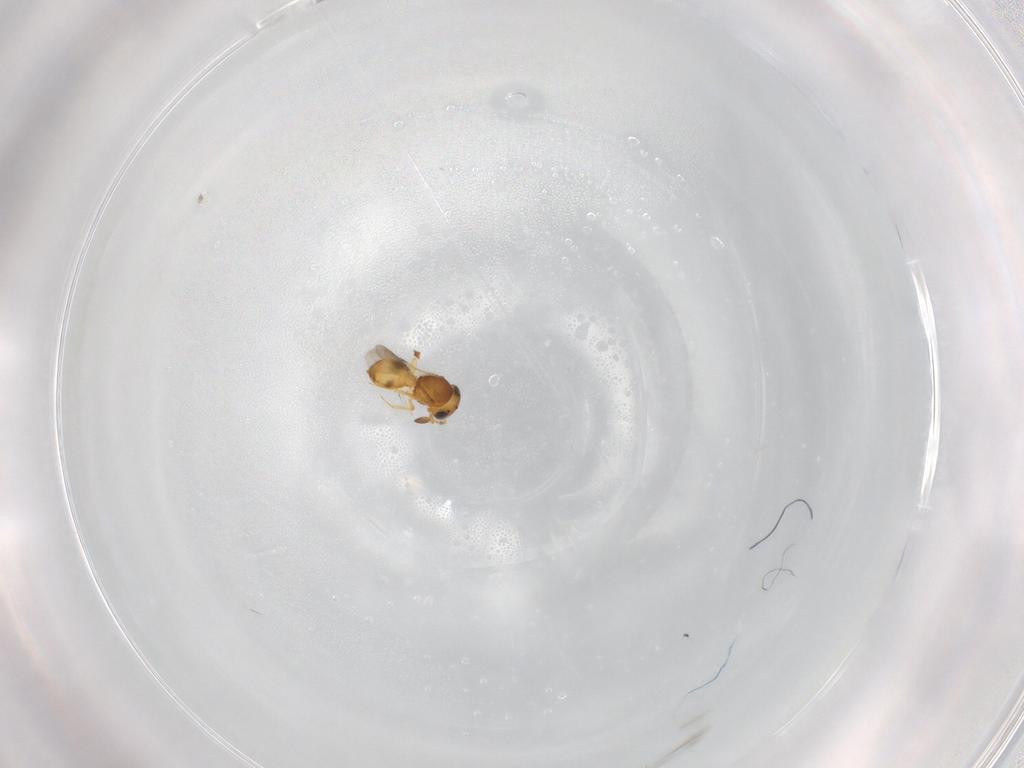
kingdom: Animalia
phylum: Arthropoda
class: Insecta
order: Hymenoptera
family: Scelionidae
